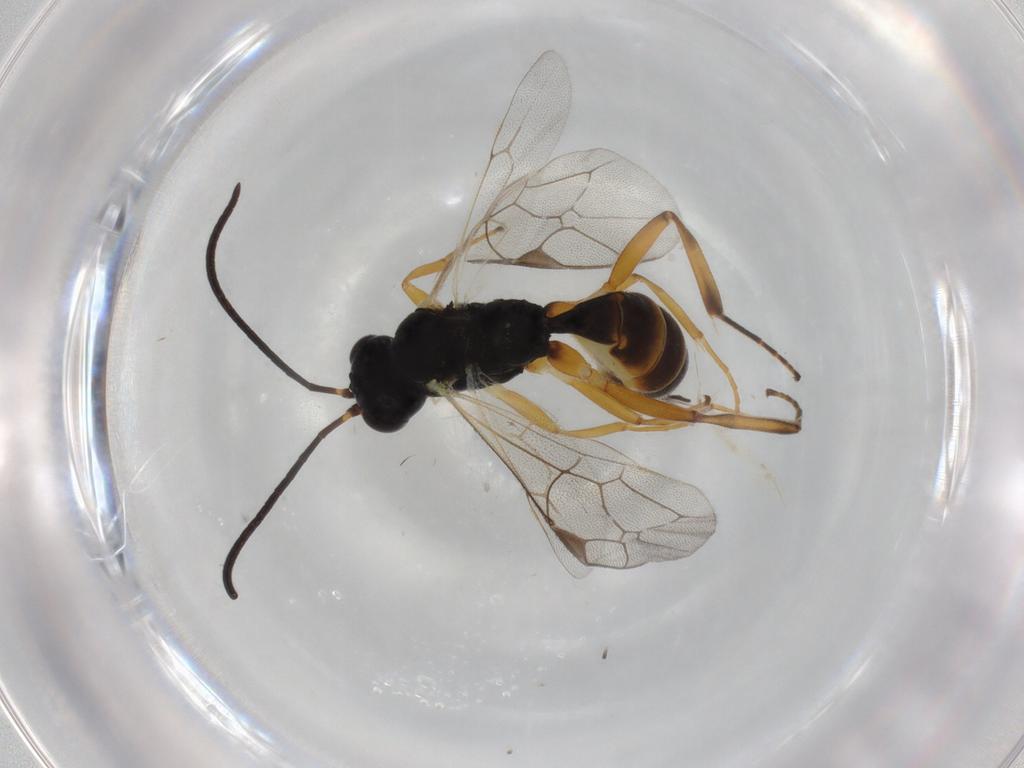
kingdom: Animalia
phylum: Arthropoda
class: Insecta
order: Hymenoptera
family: Ichneumonidae
